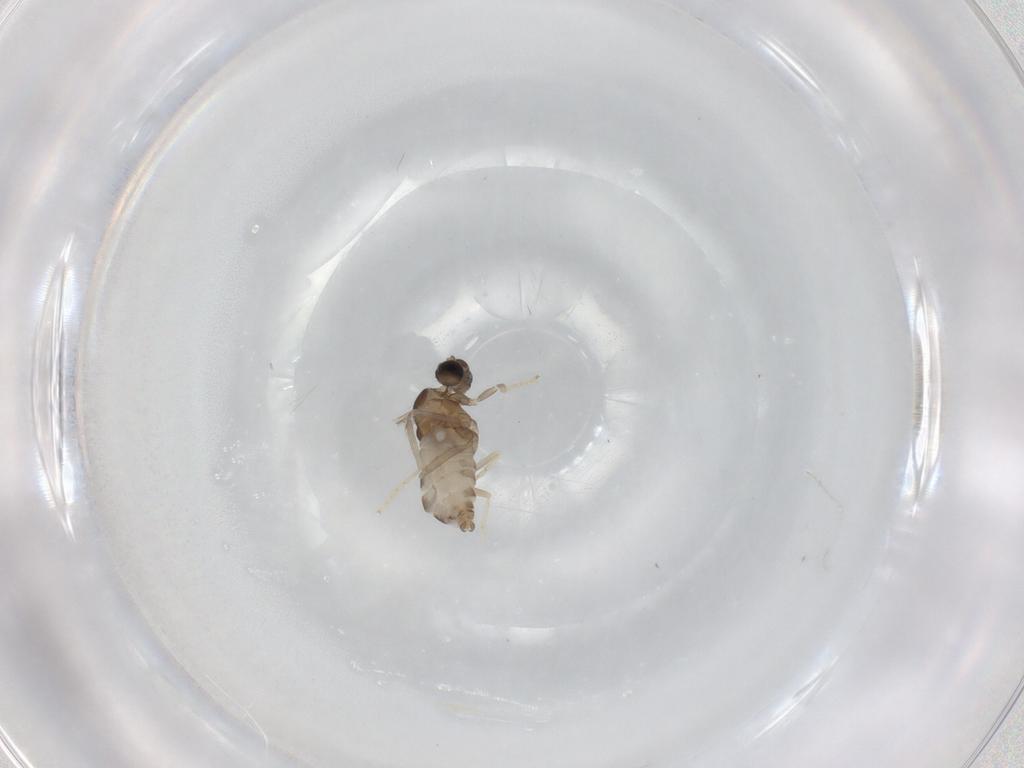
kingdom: Animalia
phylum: Arthropoda
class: Insecta
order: Diptera
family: Cecidomyiidae
